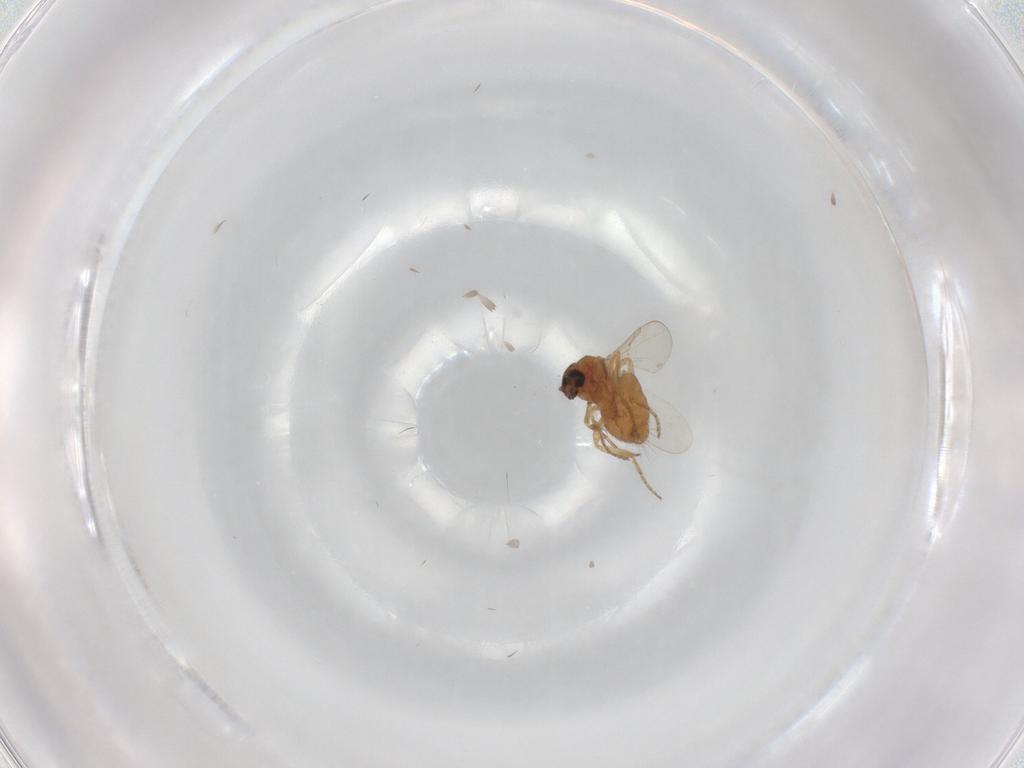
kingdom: Animalia
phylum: Arthropoda
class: Insecta
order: Diptera
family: Ceratopogonidae
